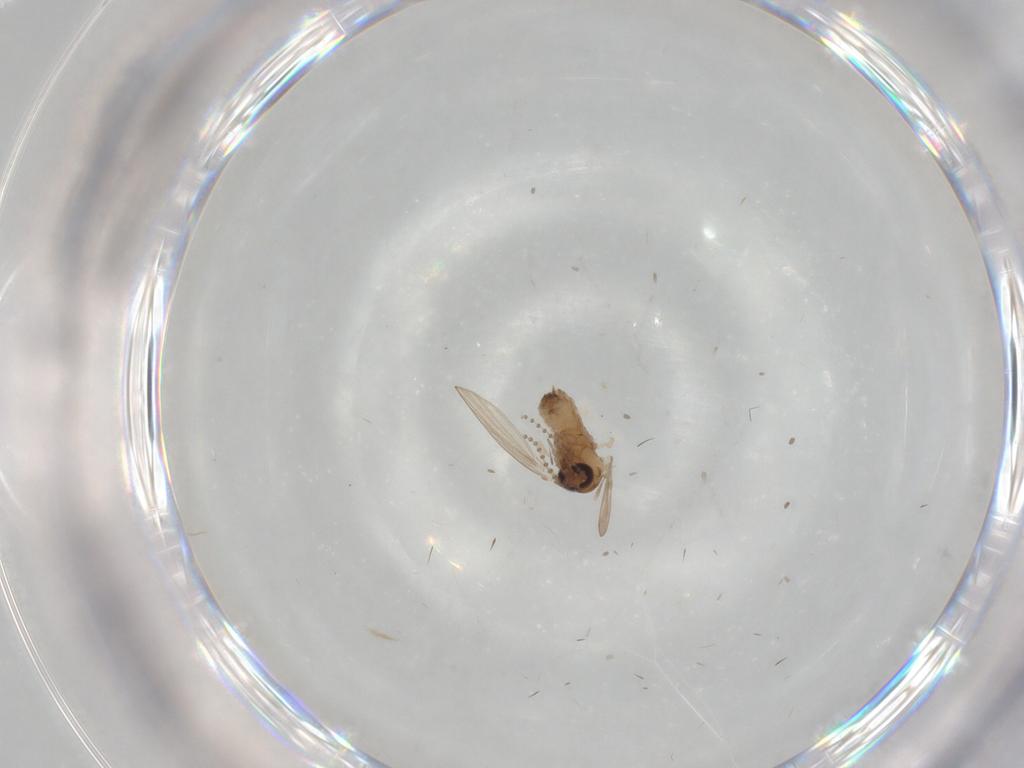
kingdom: Animalia
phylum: Arthropoda
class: Insecta
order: Diptera
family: Psychodidae
